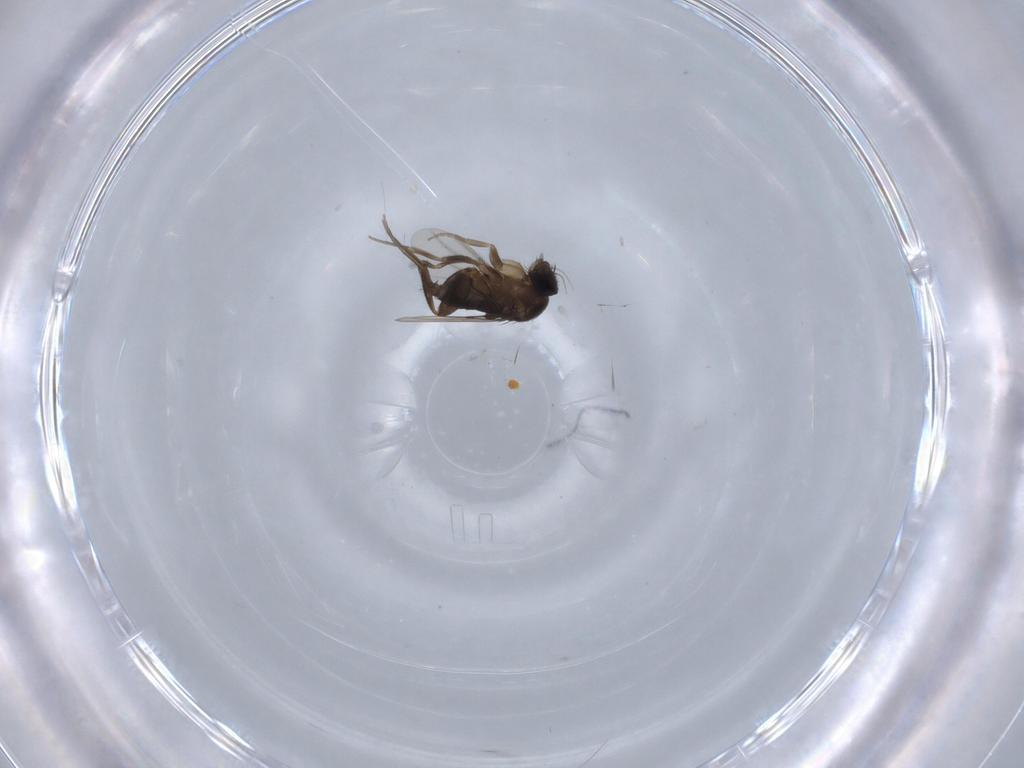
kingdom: Animalia
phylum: Arthropoda
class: Insecta
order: Diptera
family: Phoridae
